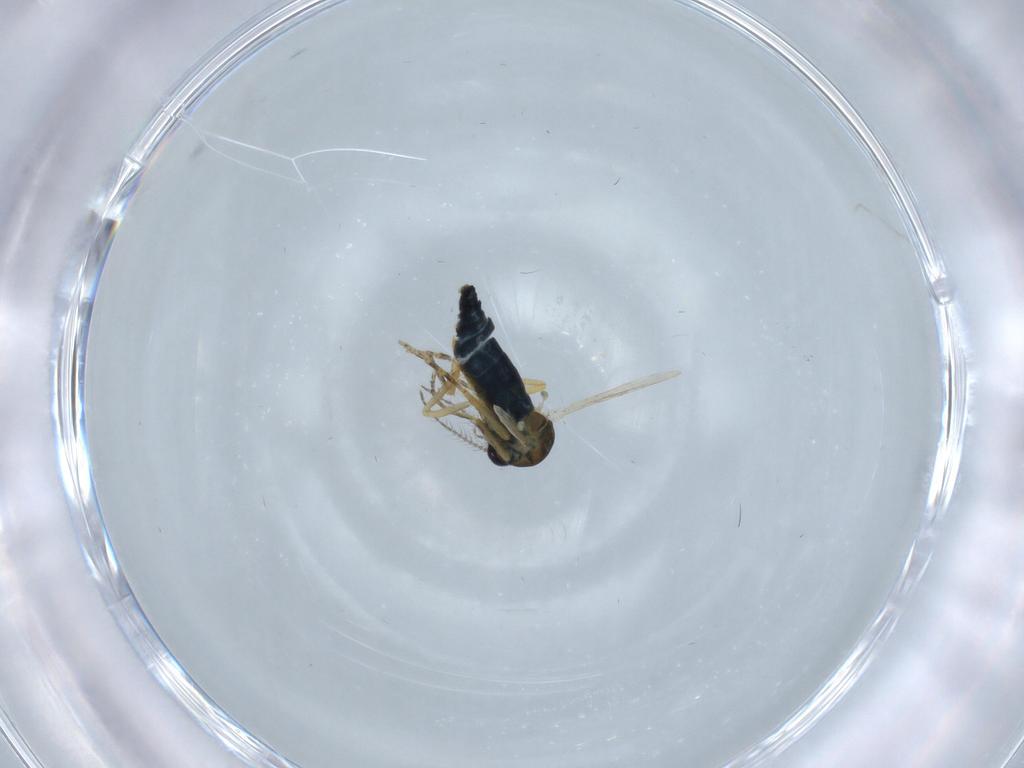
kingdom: Animalia
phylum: Arthropoda
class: Insecta
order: Diptera
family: Ceratopogonidae
